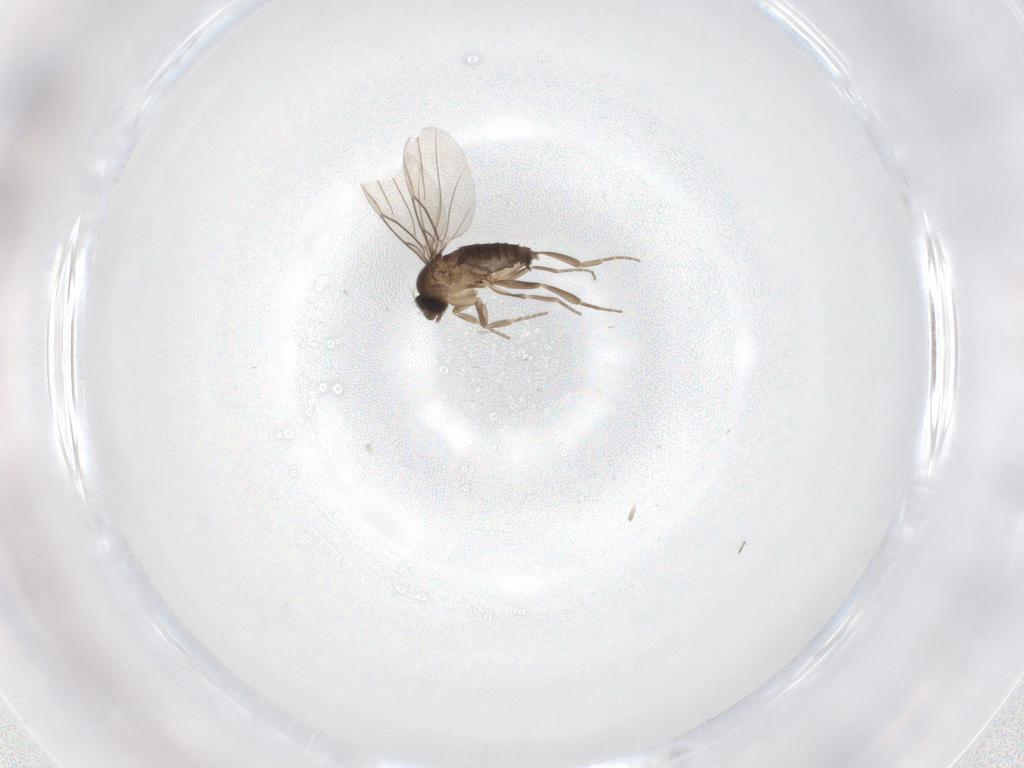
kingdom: Animalia
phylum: Arthropoda
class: Insecta
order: Diptera
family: Phoridae
